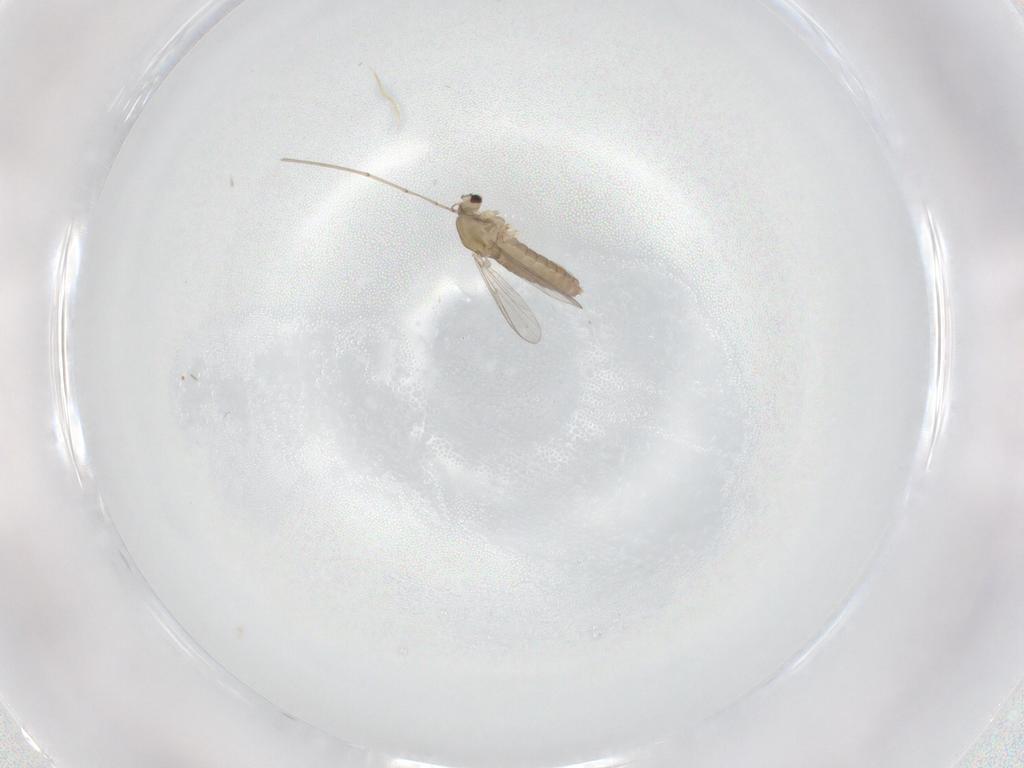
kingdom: Animalia
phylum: Arthropoda
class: Insecta
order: Diptera
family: Chironomidae
